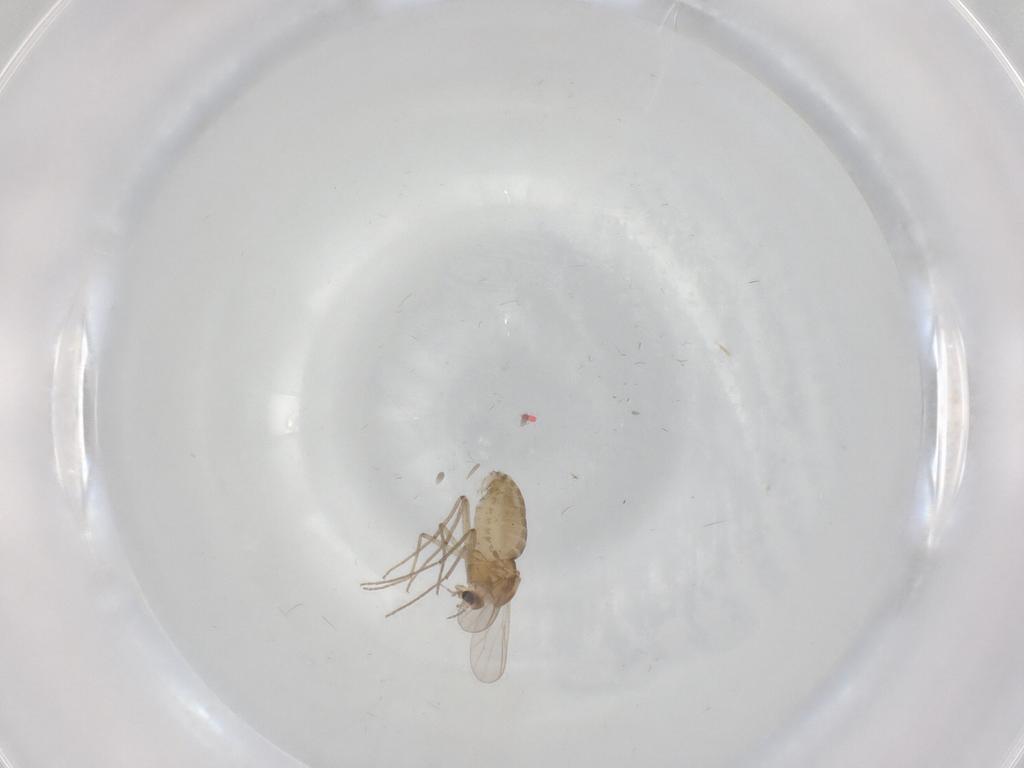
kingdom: Animalia
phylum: Arthropoda
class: Insecta
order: Diptera
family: Chironomidae
